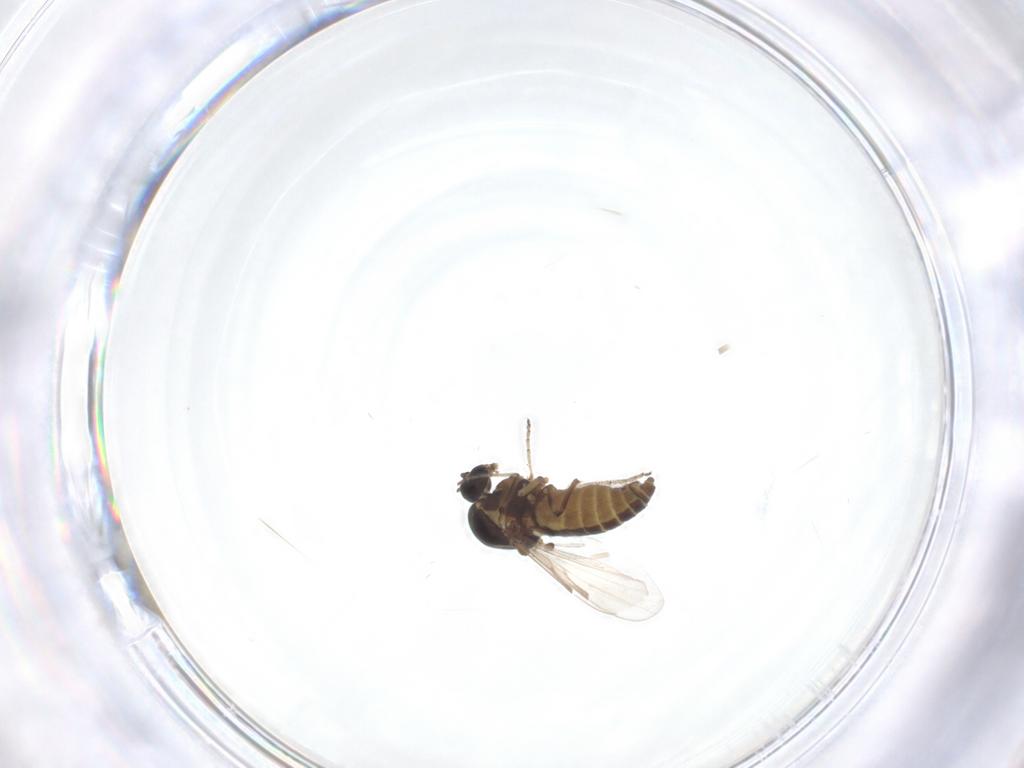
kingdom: Animalia
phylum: Arthropoda
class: Insecta
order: Diptera
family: Ceratopogonidae
